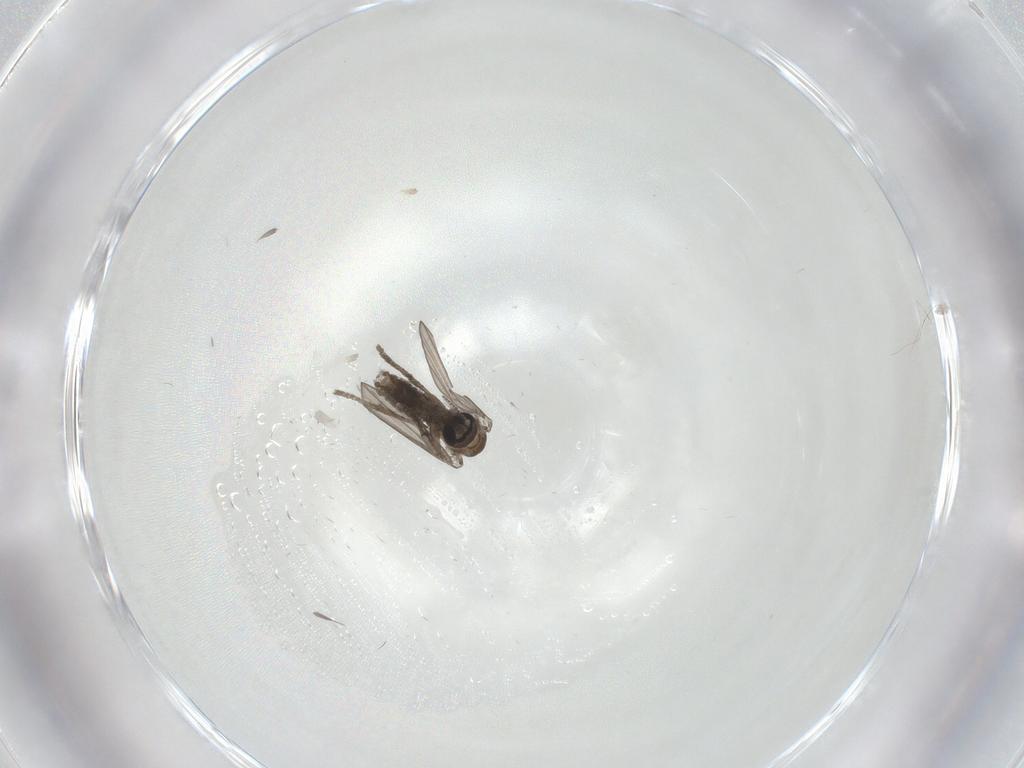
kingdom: Animalia
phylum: Arthropoda
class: Insecta
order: Diptera
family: Psychodidae
